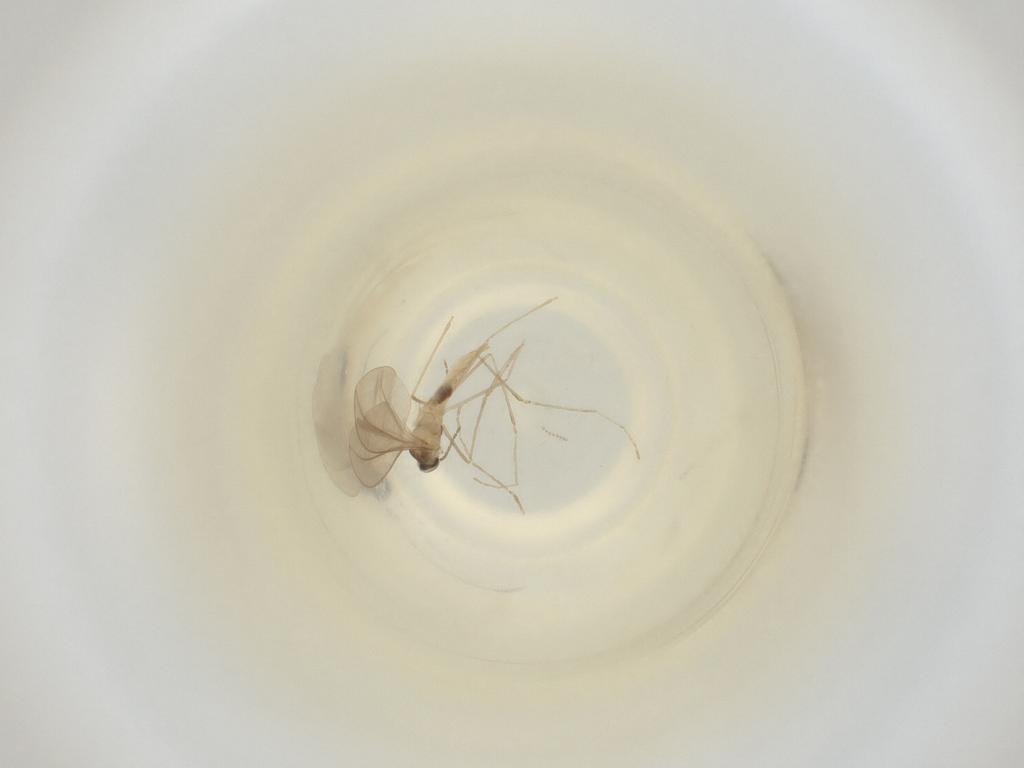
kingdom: Animalia
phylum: Arthropoda
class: Insecta
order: Diptera
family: Cecidomyiidae
